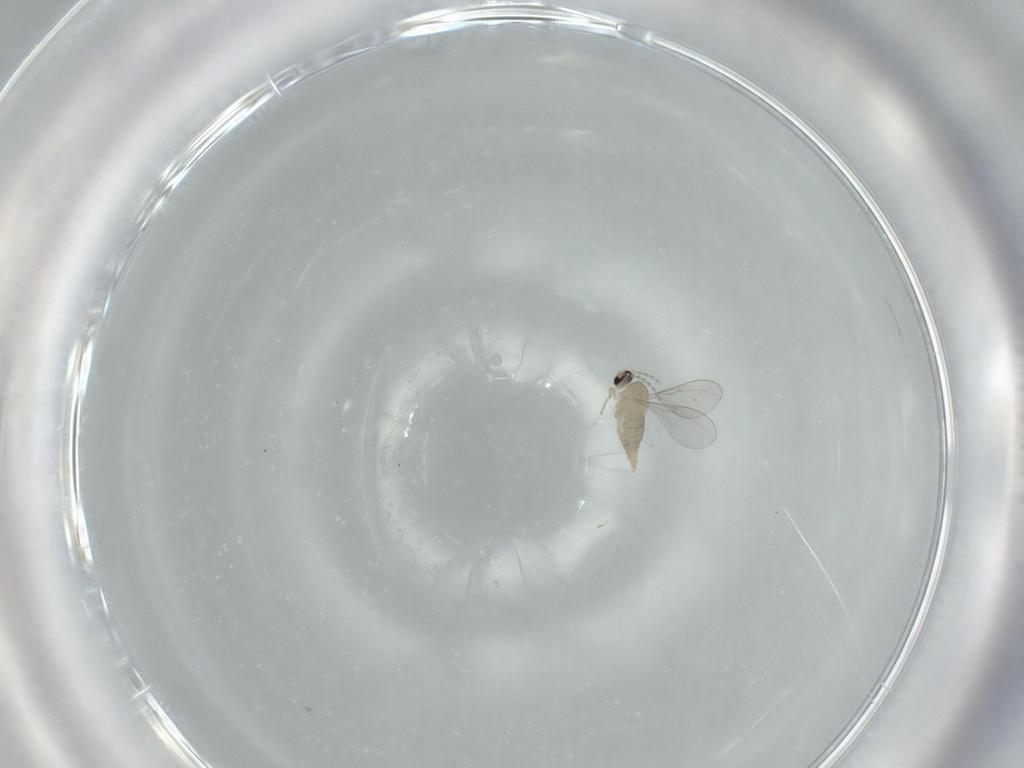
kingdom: Animalia
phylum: Arthropoda
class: Insecta
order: Diptera
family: Cecidomyiidae
